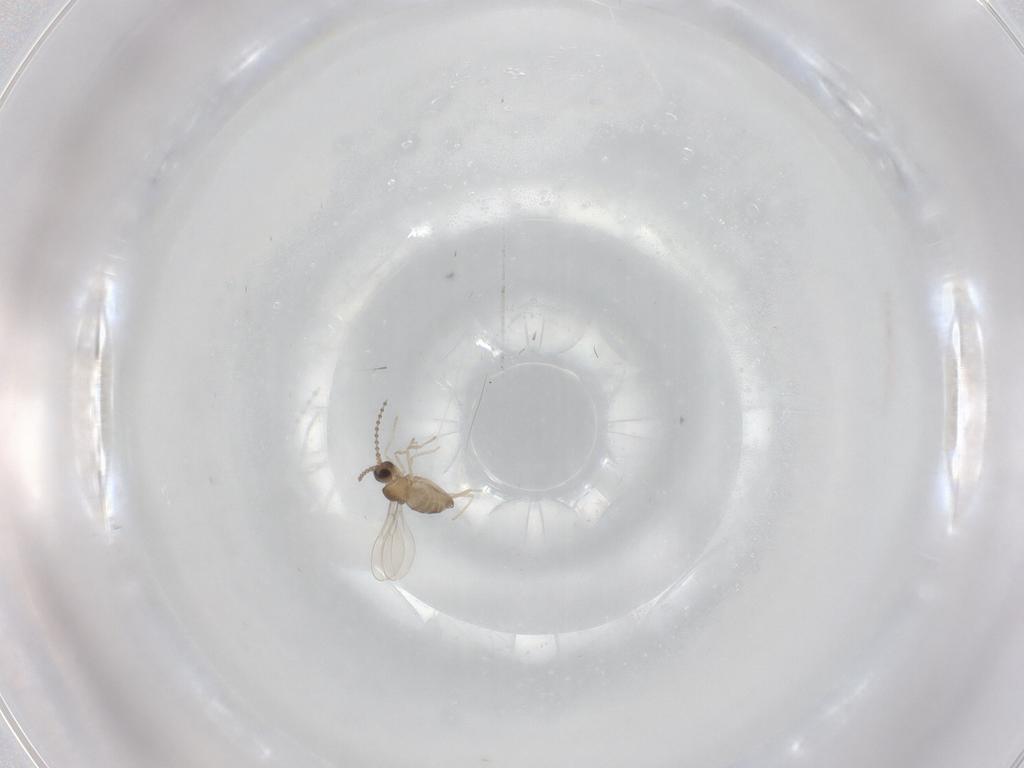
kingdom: Animalia
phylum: Arthropoda
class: Insecta
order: Diptera
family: Cecidomyiidae
